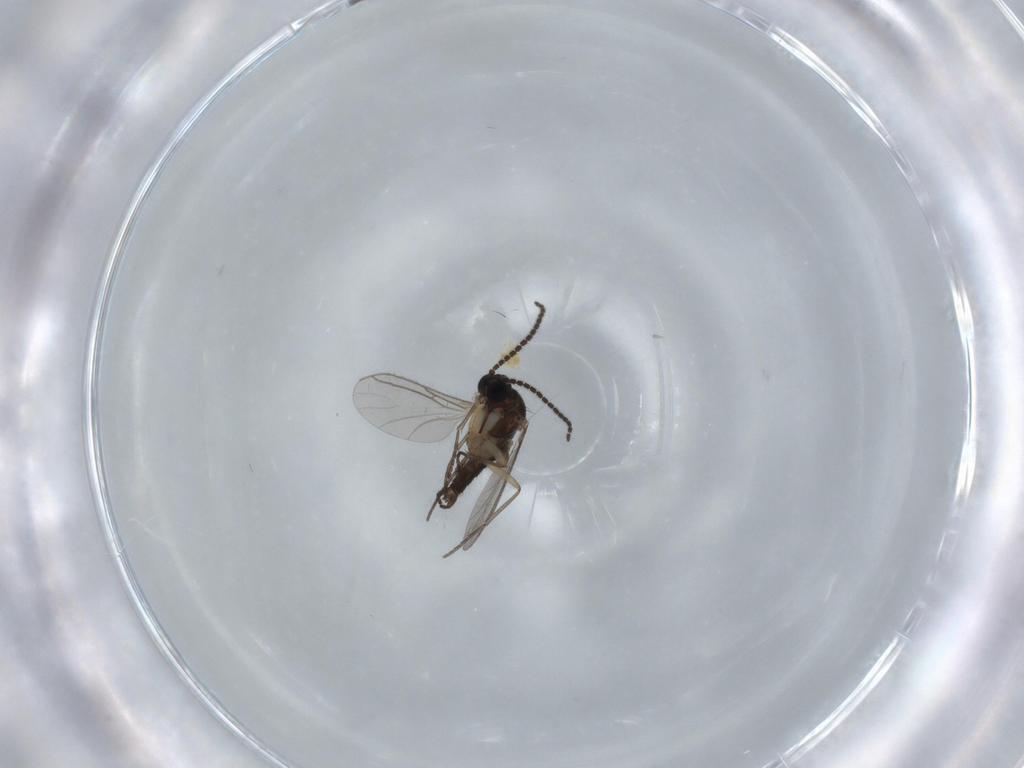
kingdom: Animalia
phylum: Arthropoda
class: Insecta
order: Diptera
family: Sciaridae
